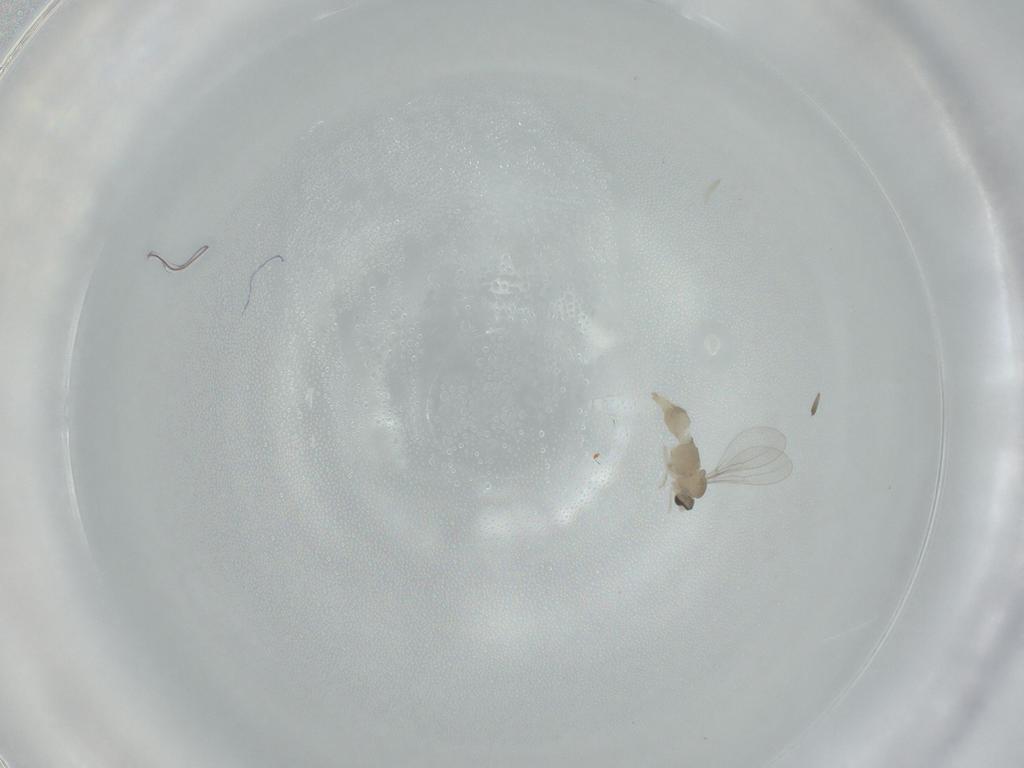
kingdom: Animalia
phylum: Arthropoda
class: Insecta
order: Diptera
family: Cecidomyiidae
